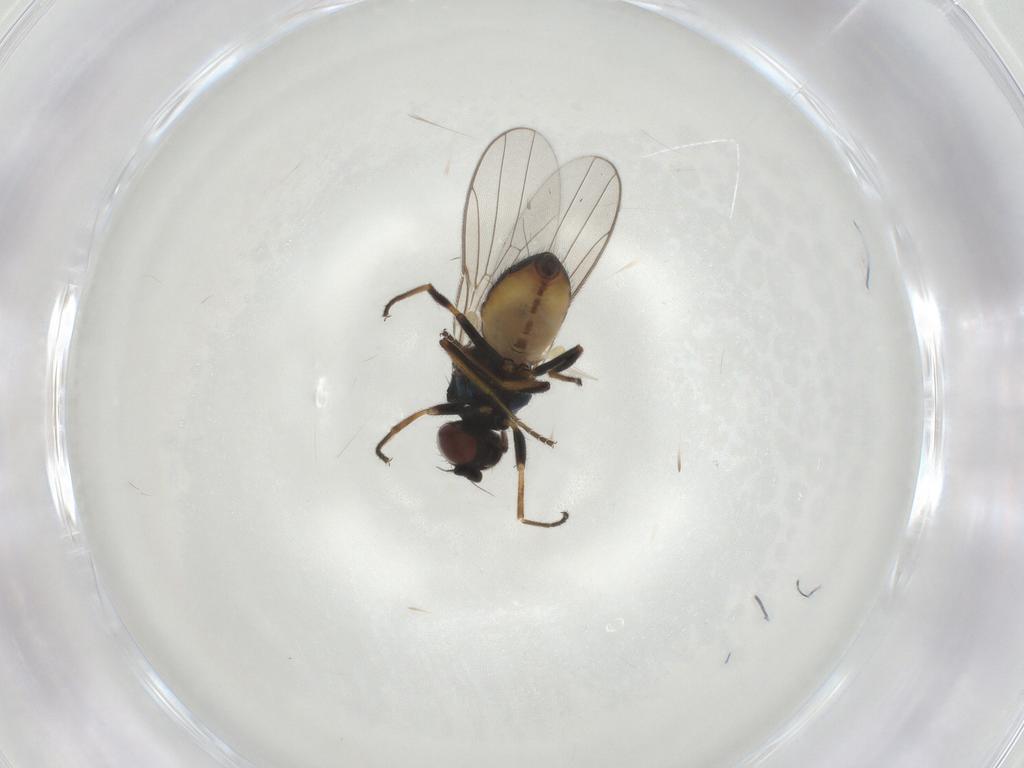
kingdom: Animalia
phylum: Arthropoda
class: Insecta
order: Diptera
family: Chloropidae
